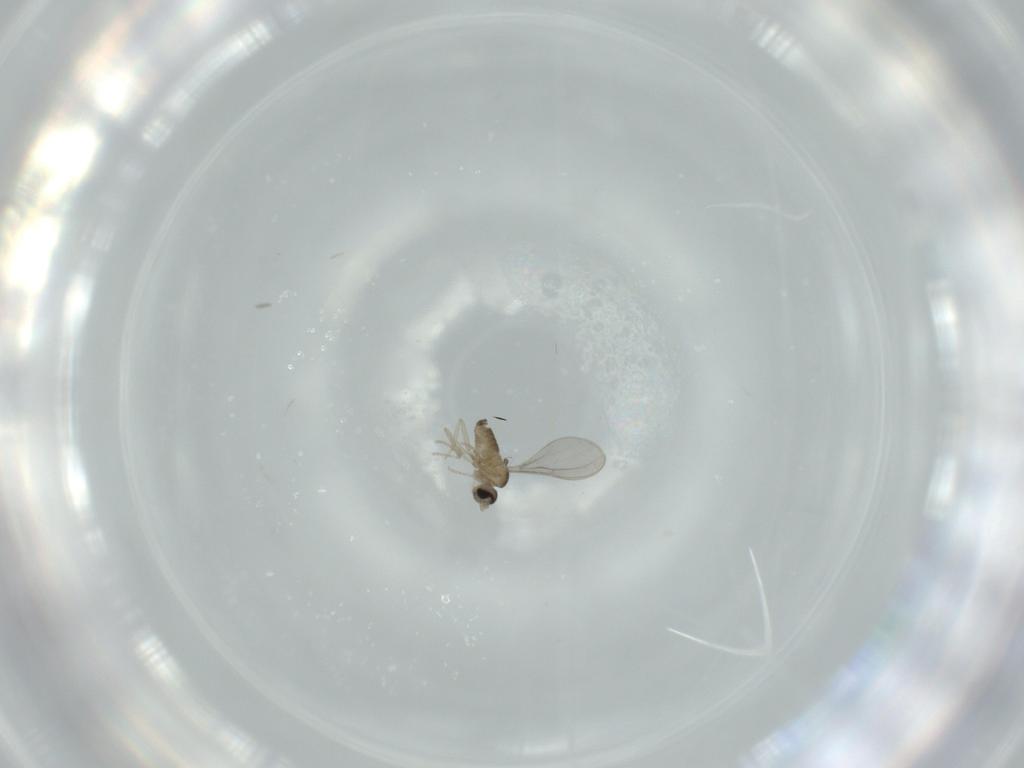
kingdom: Animalia
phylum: Arthropoda
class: Insecta
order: Diptera
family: Cecidomyiidae
